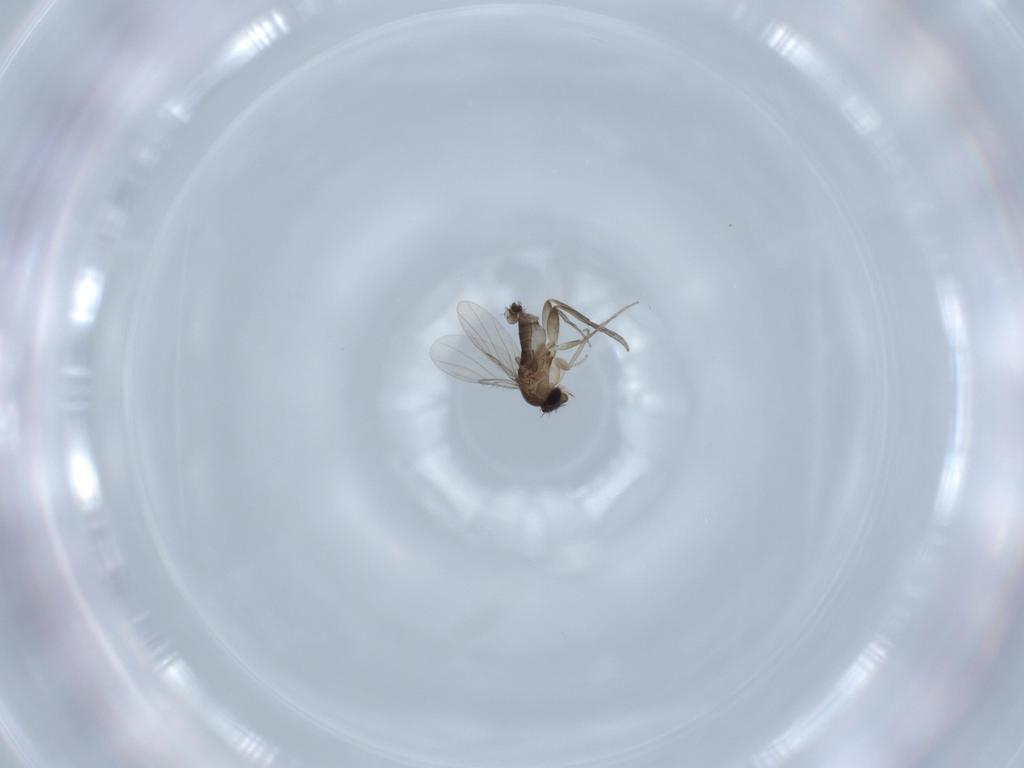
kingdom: Animalia
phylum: Arthropoda
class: Insecta
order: Diptera
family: Phoridae
